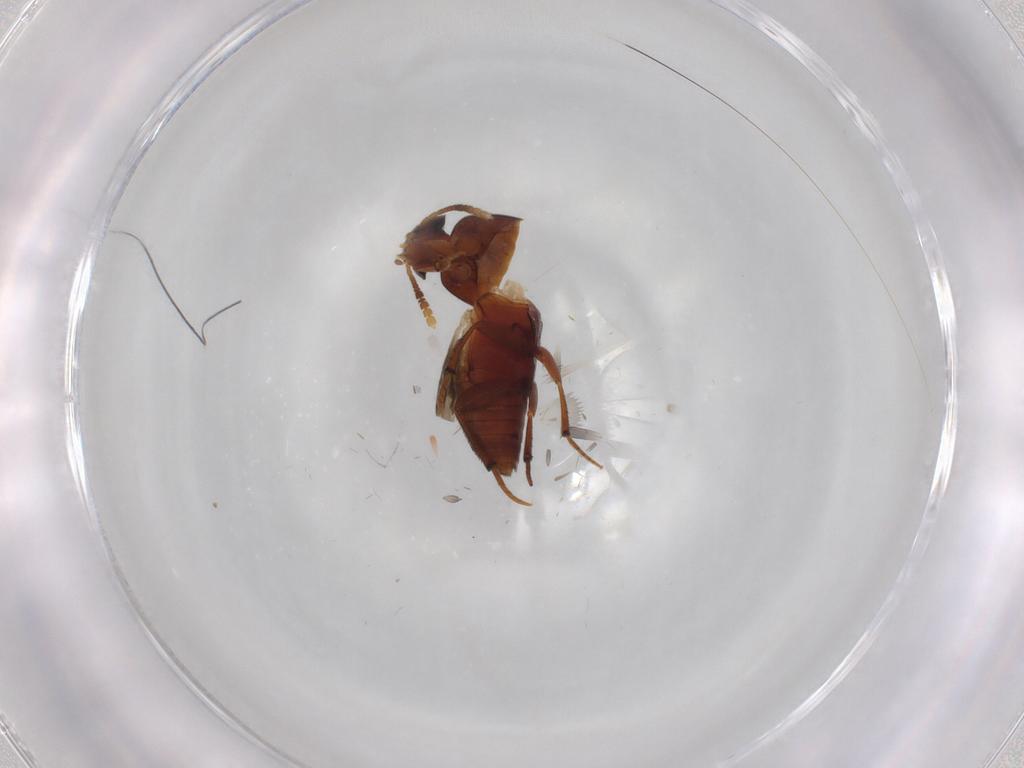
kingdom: Animalia
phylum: Arthropoda
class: Insecta
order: Coleoptera
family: Leiodidae
